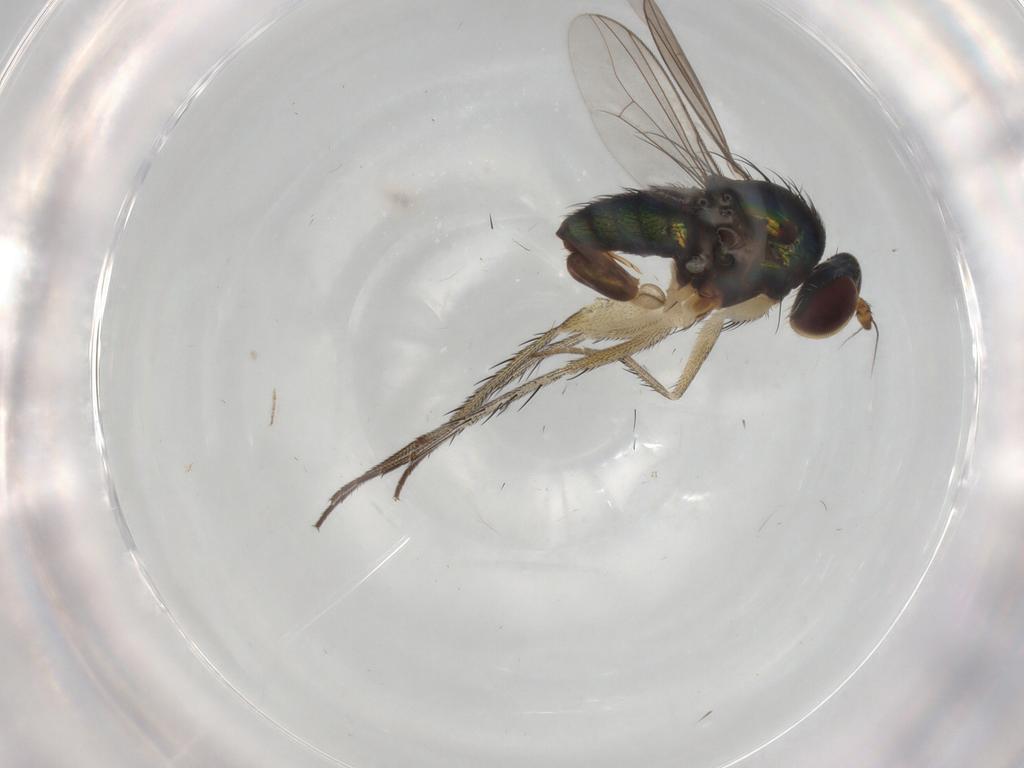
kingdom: Animalia
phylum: Arthropoda
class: Insecta
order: Diptera
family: Dolichopodidae
